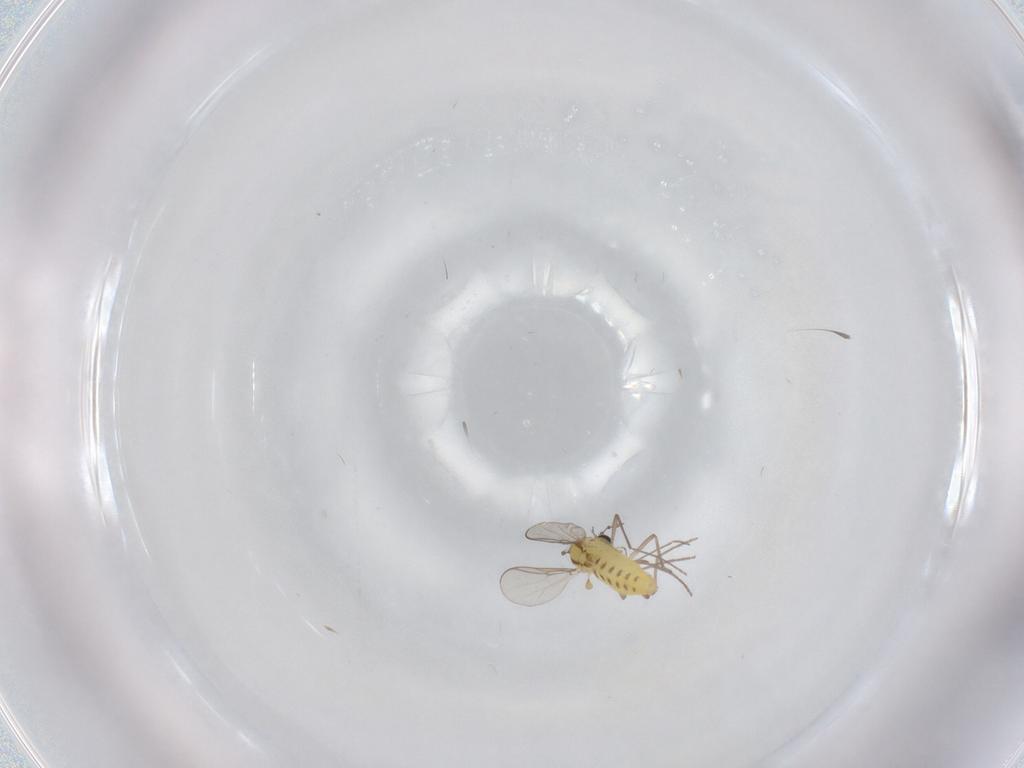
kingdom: Animalia
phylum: Arthropoda
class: Insecta
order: Diptera
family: Chironomidae
